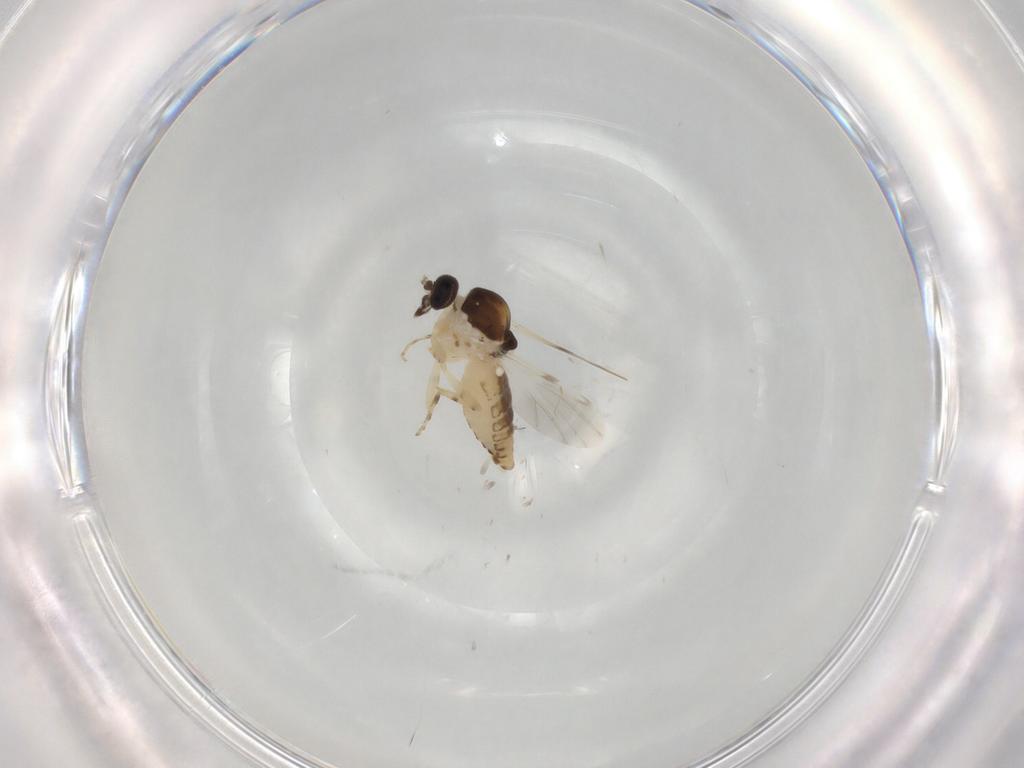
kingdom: Animalia
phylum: Arthropoda
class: Insecta
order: Diptera
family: Ceratopogonidae
